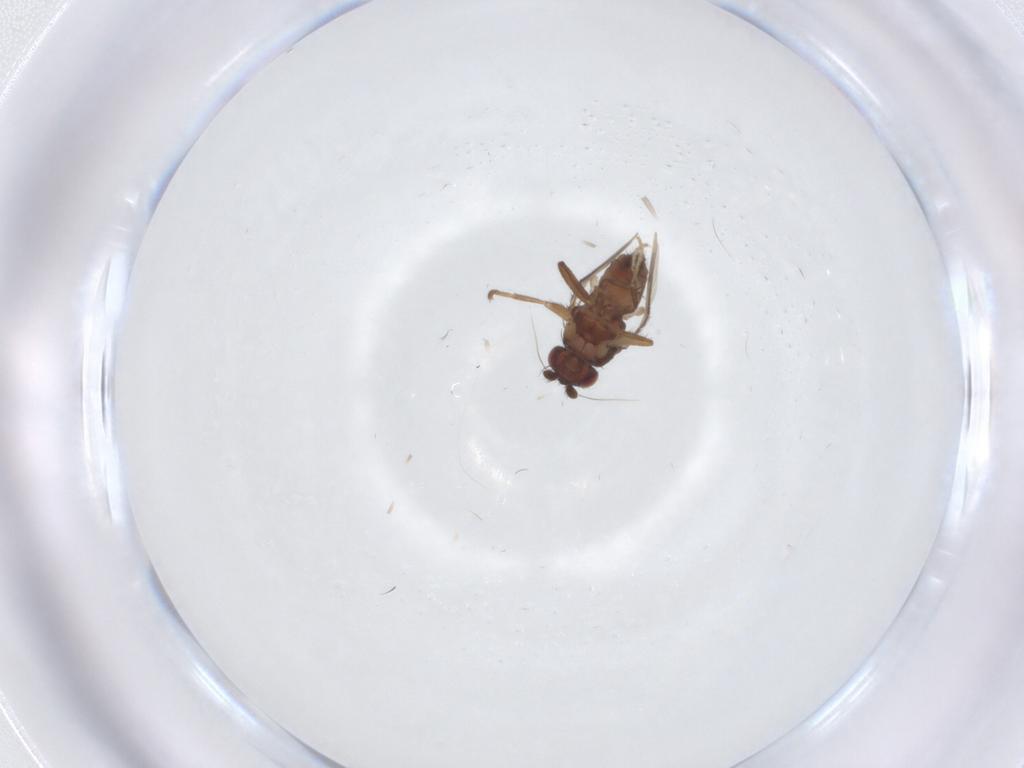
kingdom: Animalia
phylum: Arthropoda
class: Insecta
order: Diptera
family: Sphaeroceridae
